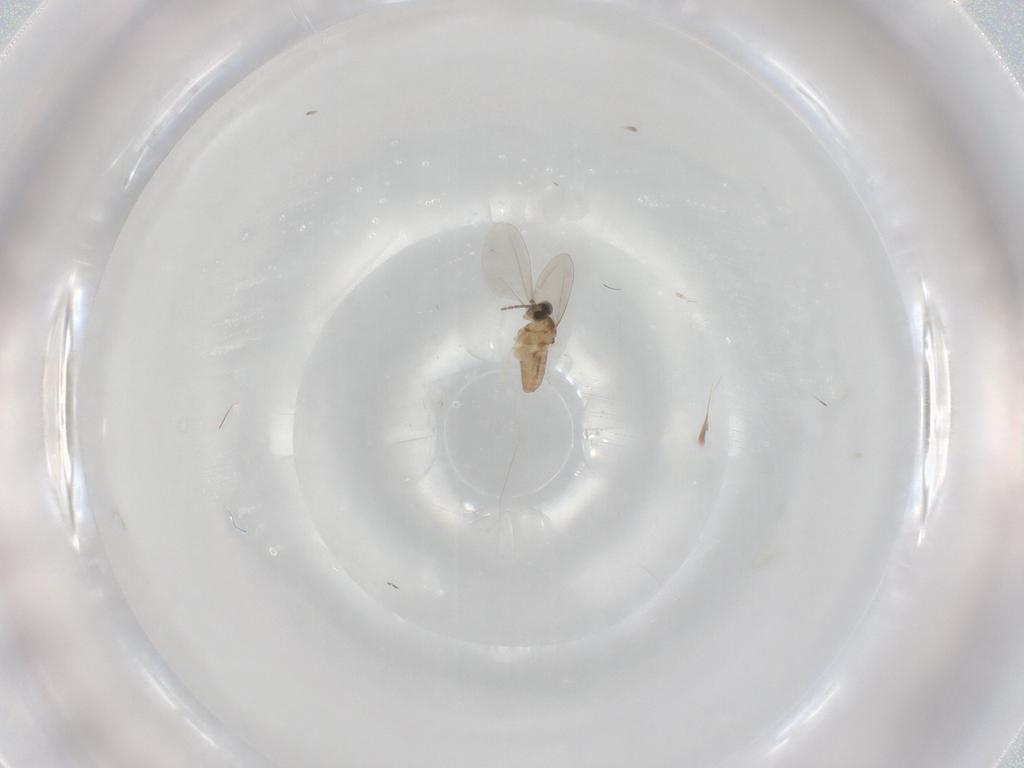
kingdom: Animalia
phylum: Arthropoda
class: Insecta
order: Diptera
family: Cecidomyiidae
